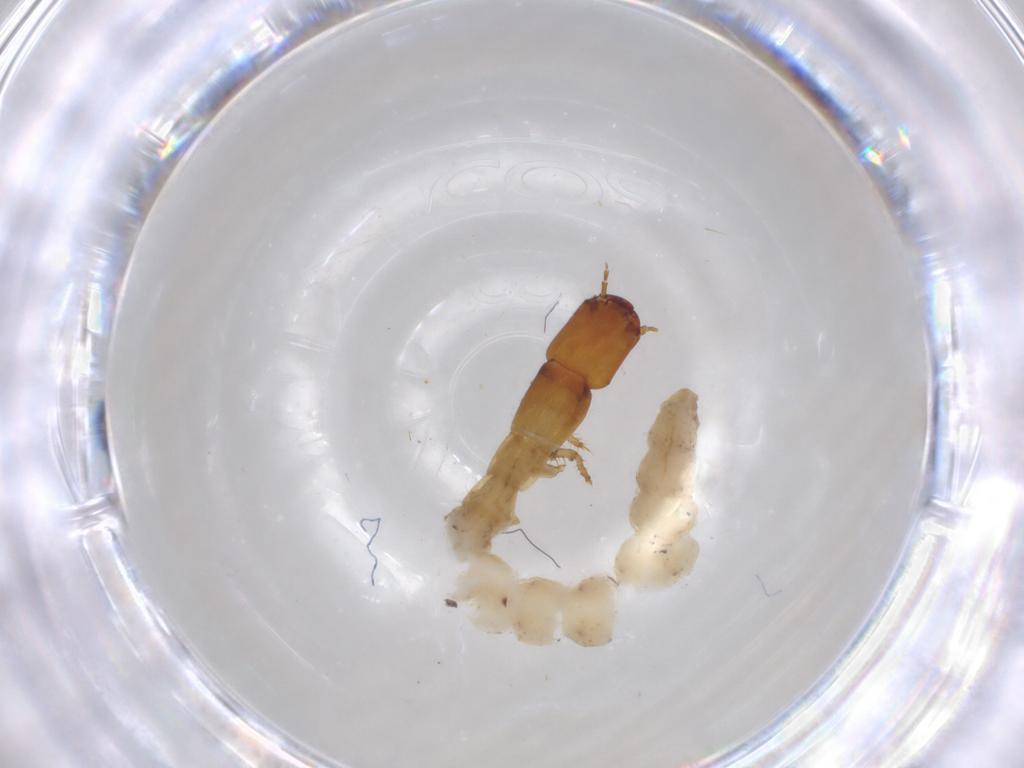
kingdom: Animalia
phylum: Arthropoda
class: Insecta
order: Coleoptera
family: Staphylinidae
